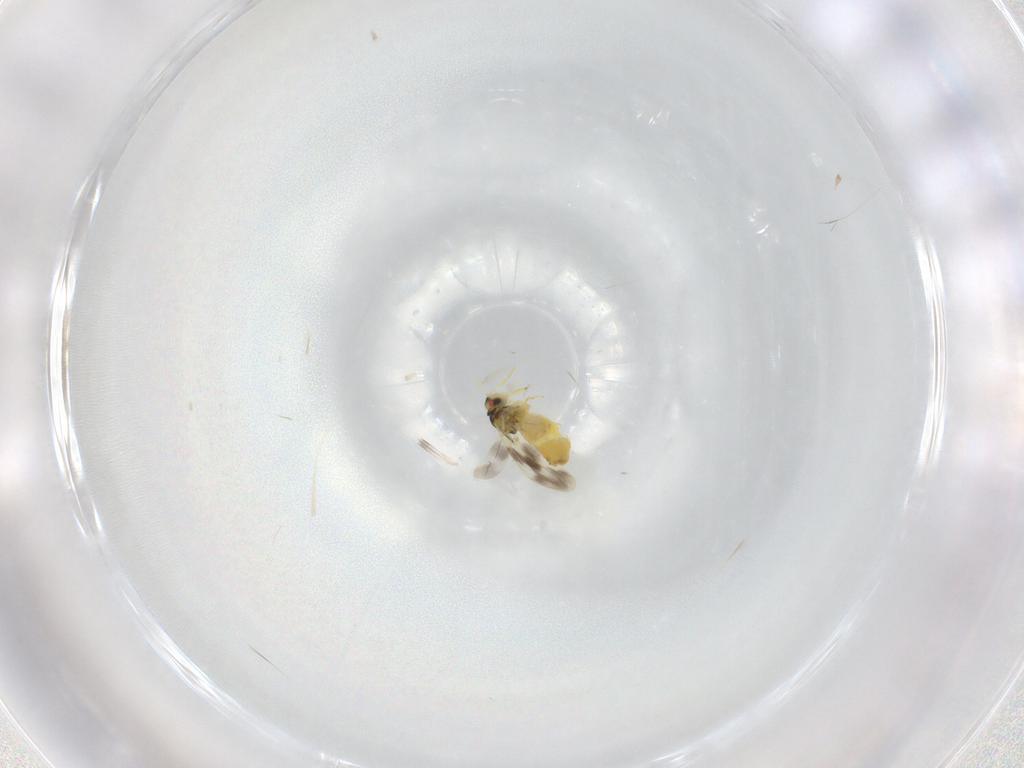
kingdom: Animalia
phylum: Arthropoda
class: Insecta
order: Hemiptera
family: Aleyrodidae
